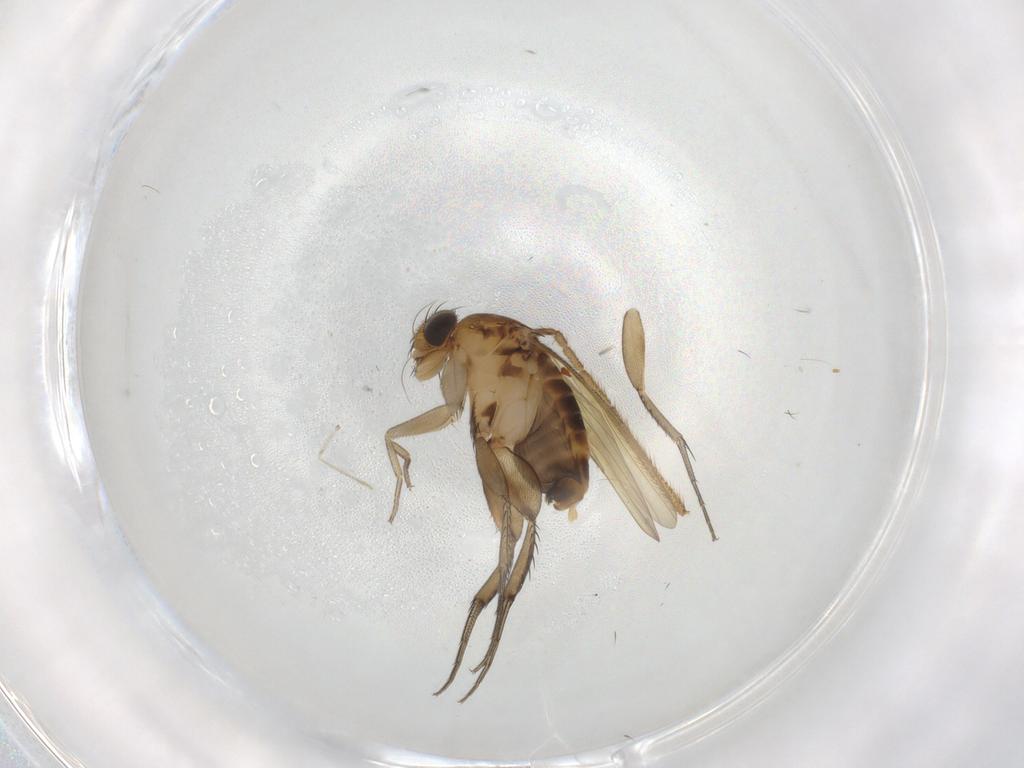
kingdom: Animalia
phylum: Arthropoda
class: Insecta
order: Diptera
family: Phoridae
